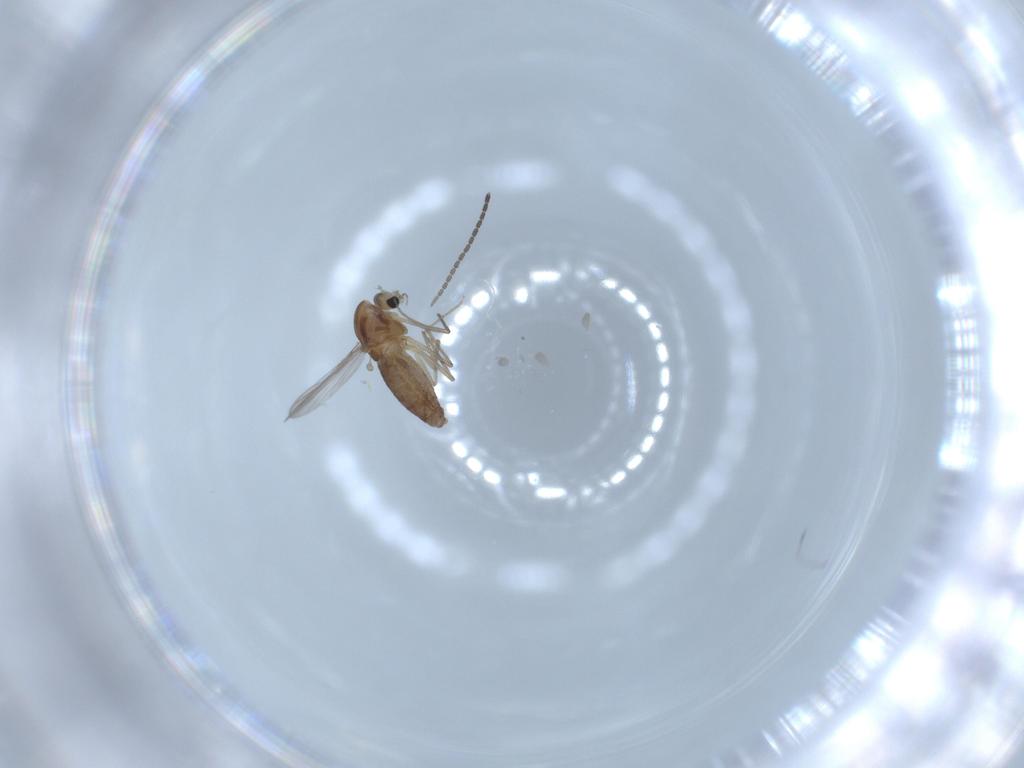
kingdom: Animalia
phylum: Arthropoda
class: Insecta
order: Diptera
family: Chironomidae
